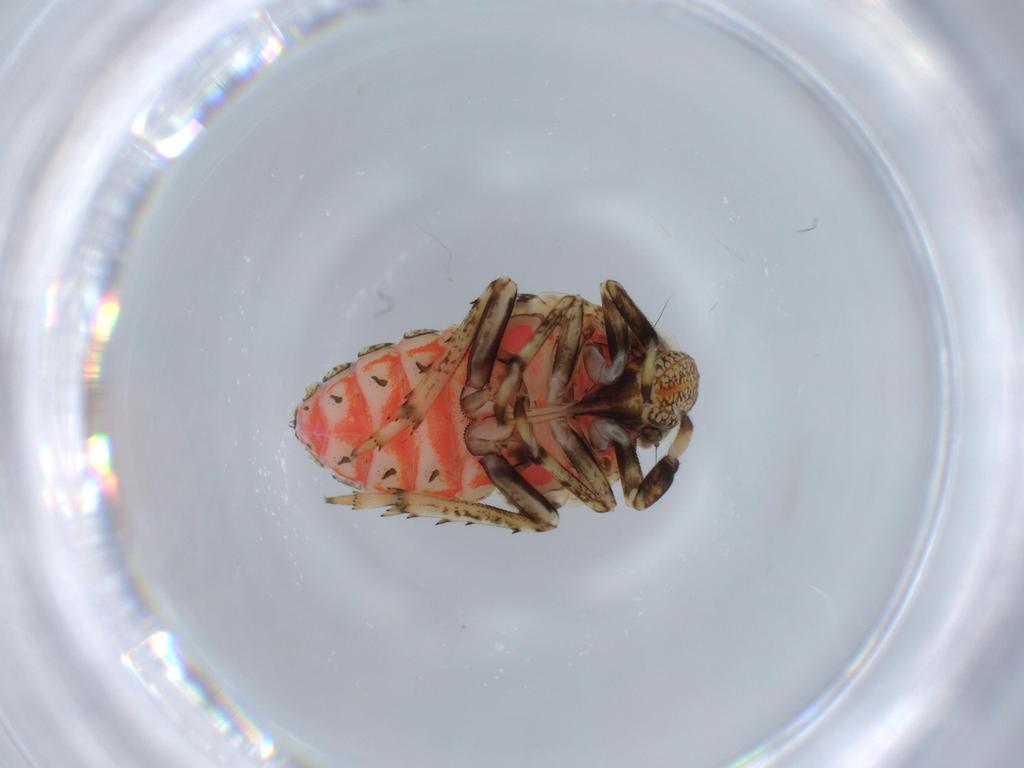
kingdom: Animalia
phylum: Arthropoda
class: Insecta
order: Hemiptera
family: Issidae
